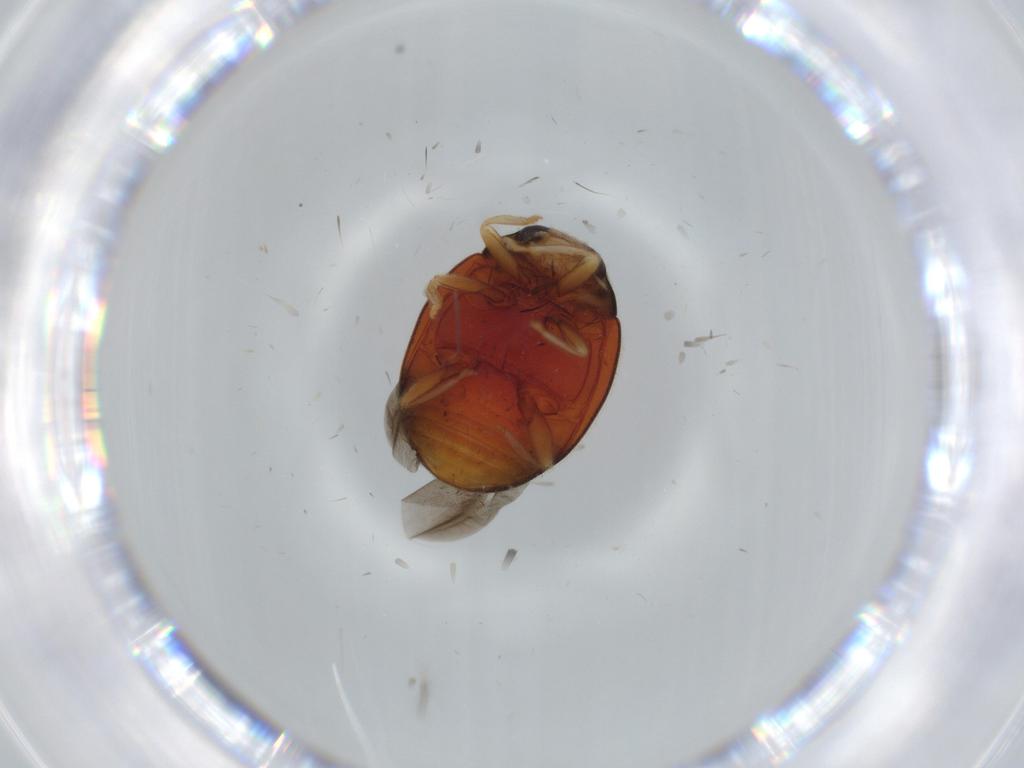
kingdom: Animalia
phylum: Arthropoda
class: Insecta
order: Coleoptera
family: Coccinellidae
